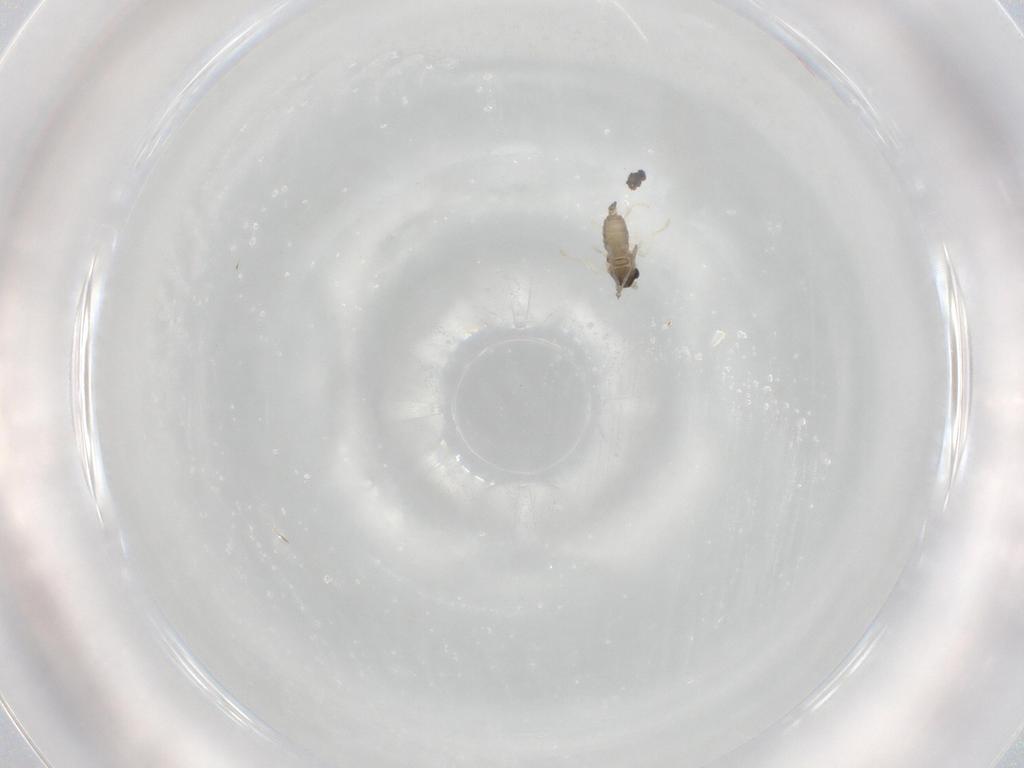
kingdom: Animalia
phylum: Arthropoda
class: Insecta
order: Diptera
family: Cecidomyiidae
